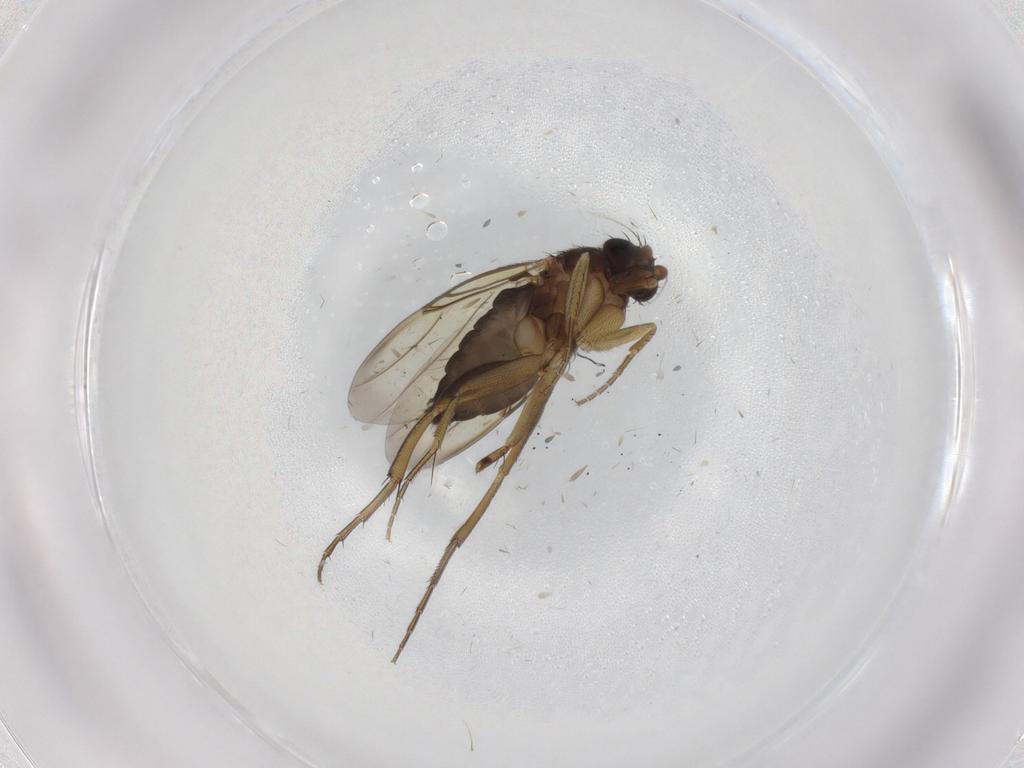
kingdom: Animalia
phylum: Arthropoda
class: Insecta
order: Diptera
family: Phoridae
